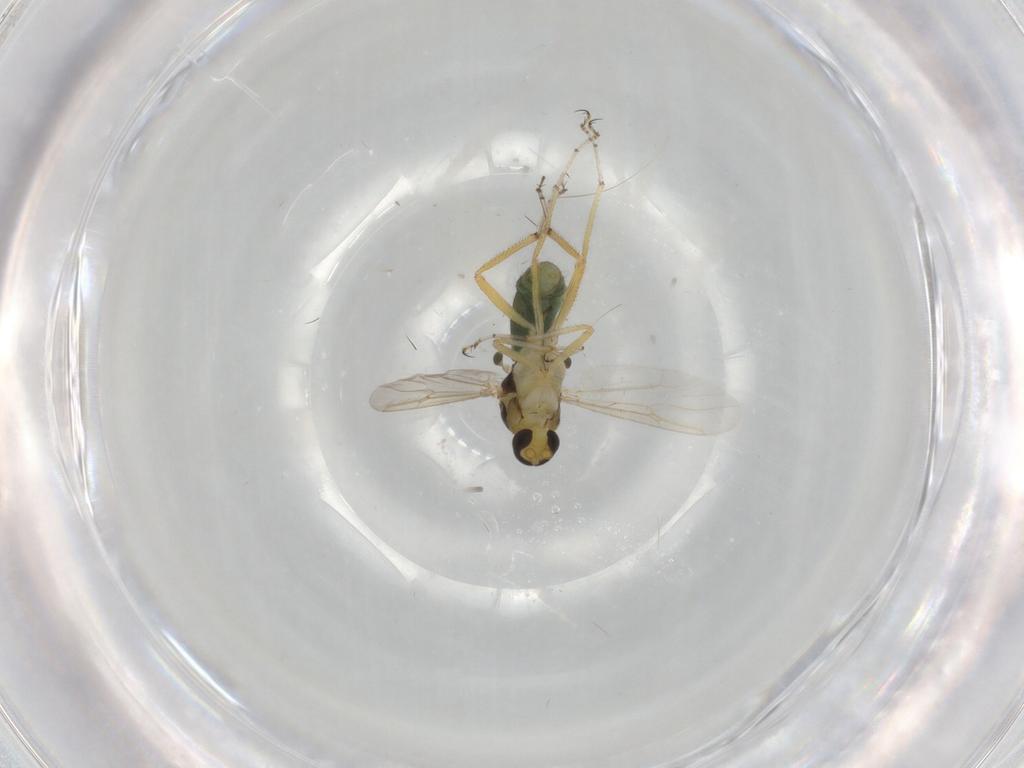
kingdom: Animalia
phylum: Arthropoda
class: Insecta
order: Diptera
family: Ceratopogonidae
